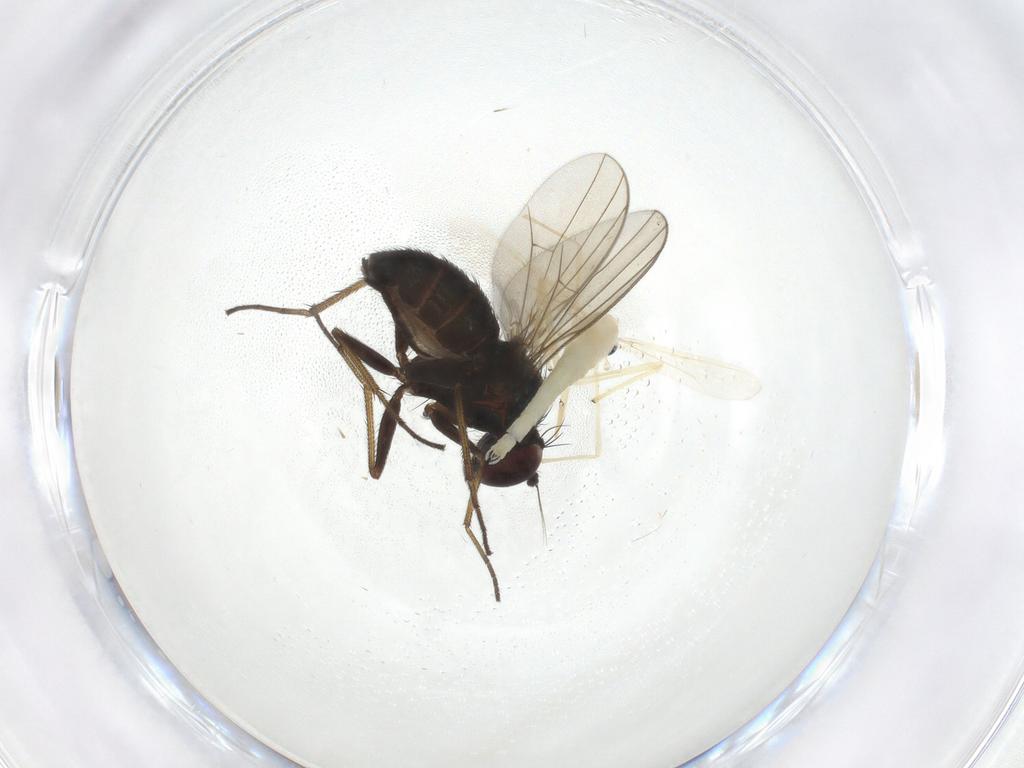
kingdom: Animalia
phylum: Arthropoda
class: Insecta
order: Diptera
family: Dolichopodidae
